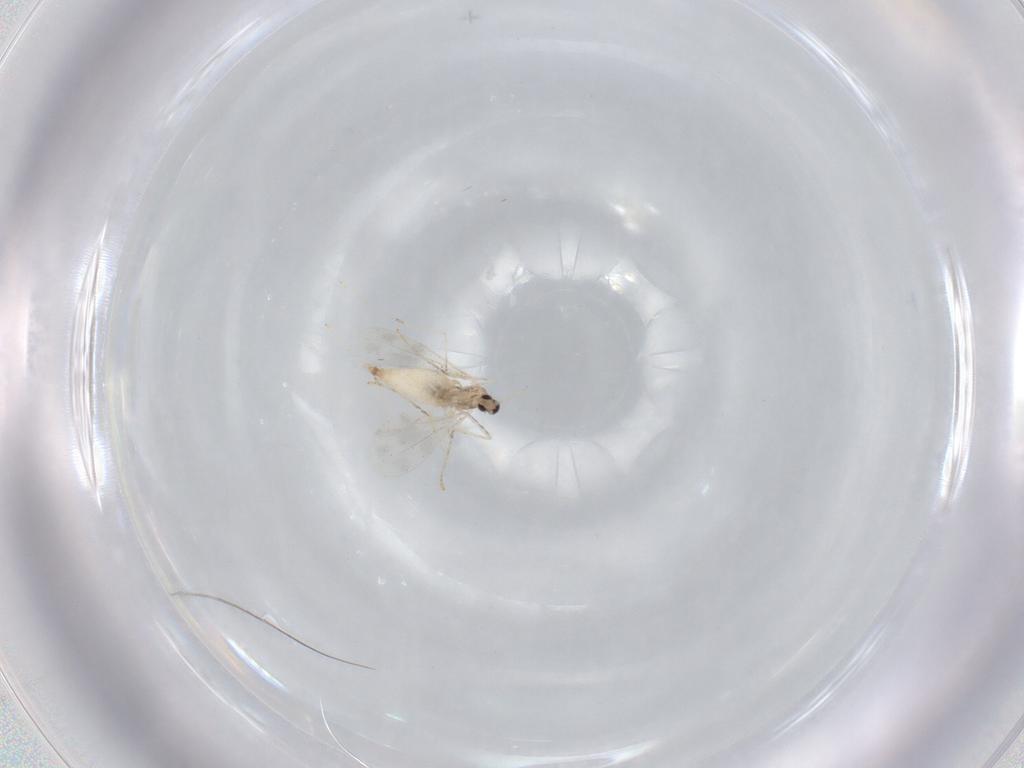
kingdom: Animalia
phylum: Arthropoda
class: Insecta
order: Diptera
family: Cecidomyiidae
